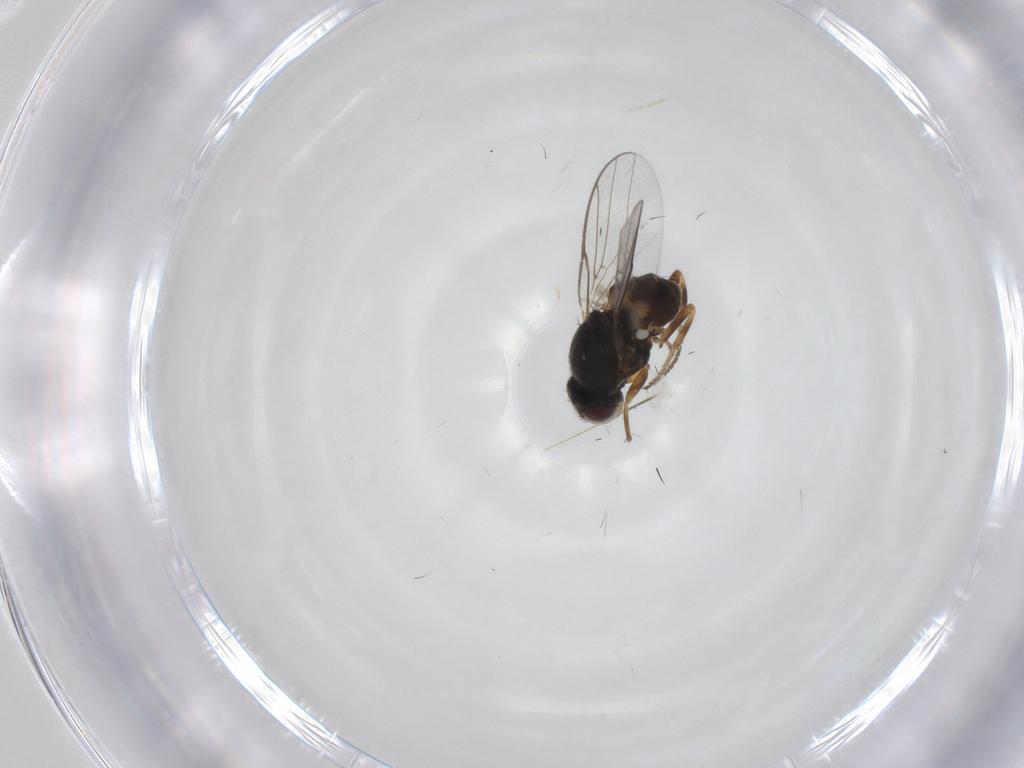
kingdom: Animalia
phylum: Arthropoda
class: Insecta
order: Diptera
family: Chloropidae
